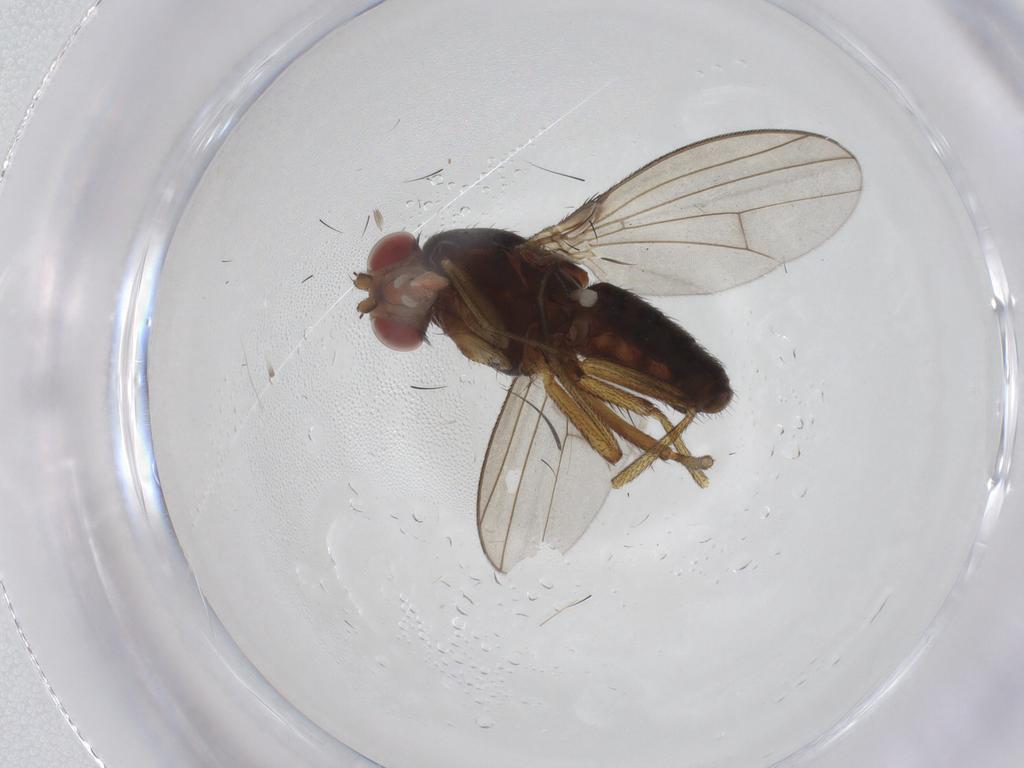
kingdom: Animalia
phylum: Arthropoda
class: Insecta
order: Diptera
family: Diastatidae
